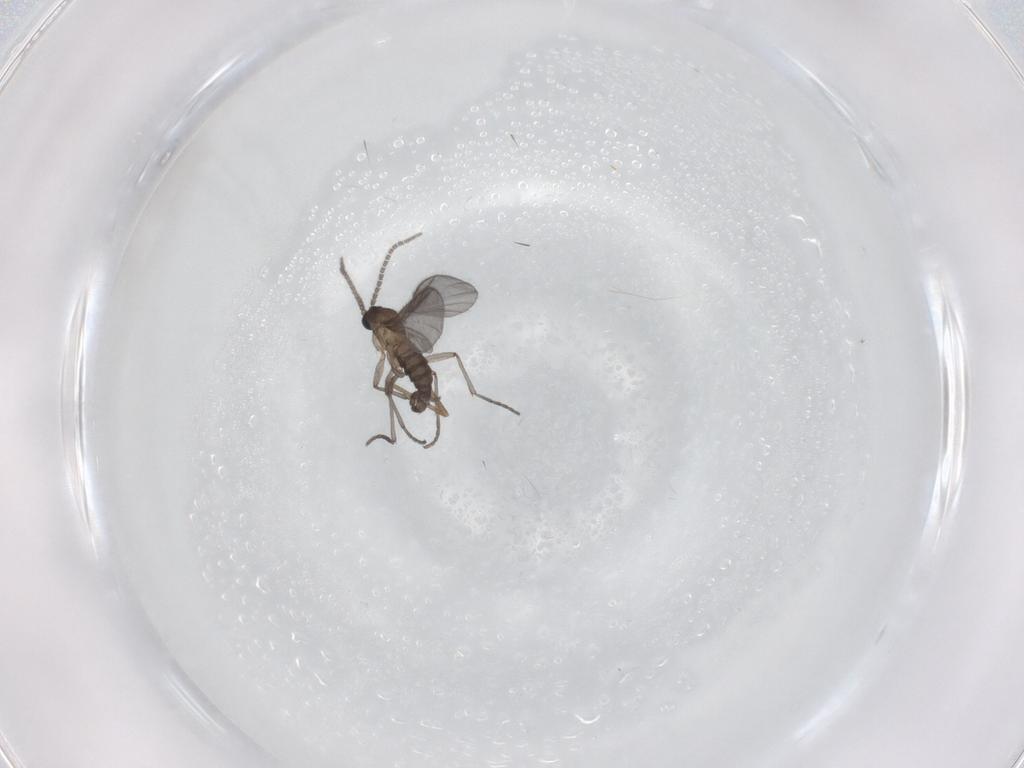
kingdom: Animalia
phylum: Arthropoda
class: Insecta
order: Diptera
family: Sciaridae
